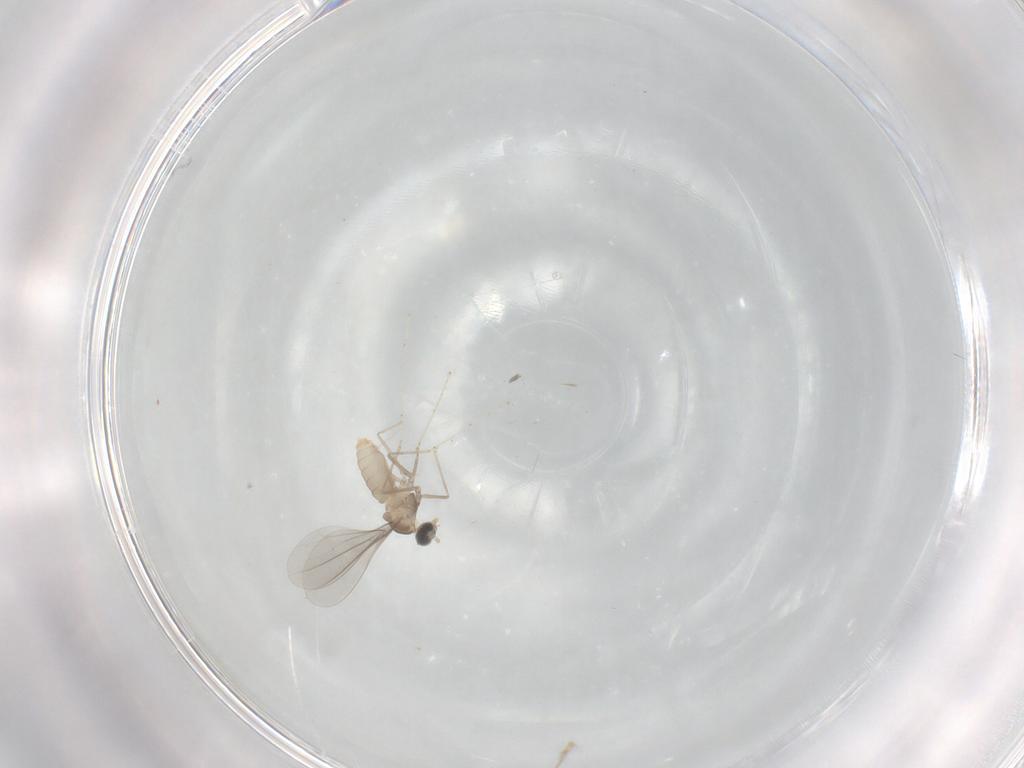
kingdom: Animalia
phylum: Arthropoda
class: Insecta
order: Diptera
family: Cecidomyiidae
